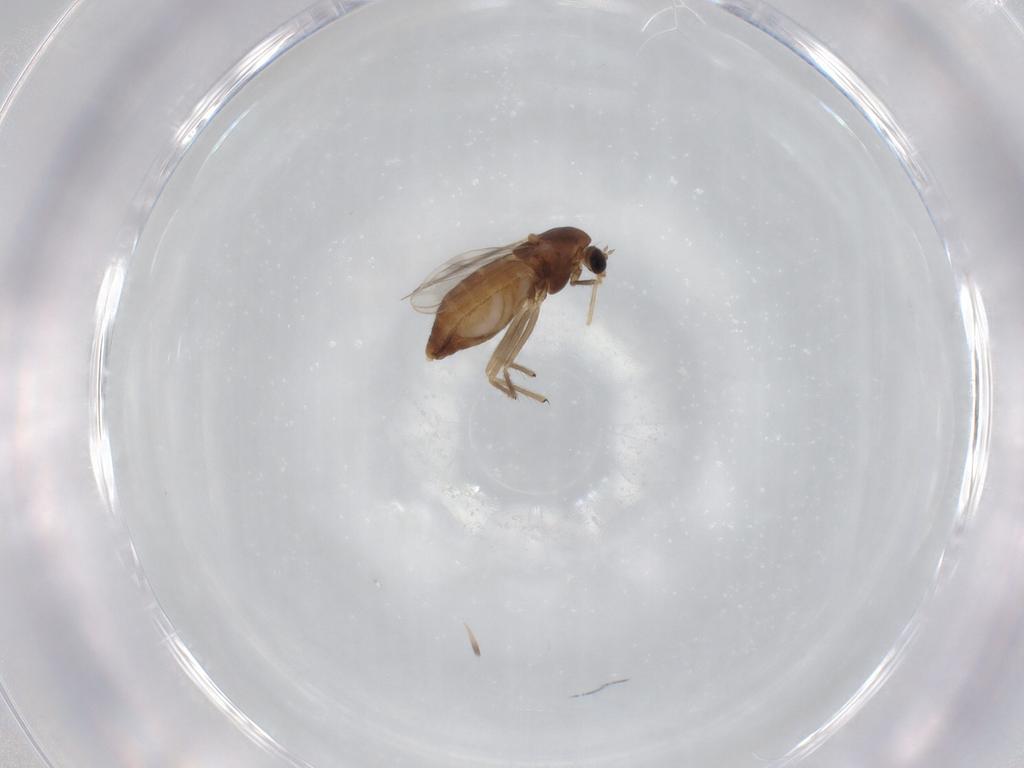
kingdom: Animalia
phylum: Arthropoda
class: Insecta
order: Diptera
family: Chironomidae
